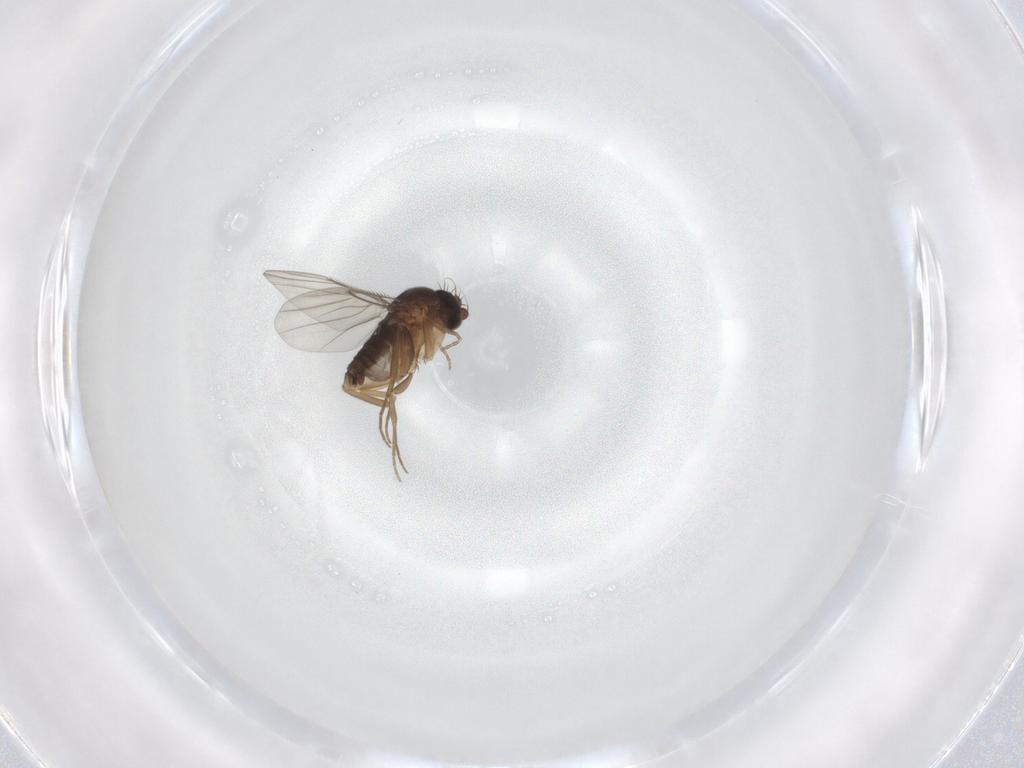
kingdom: Animalia
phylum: Arthropoda
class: Insecta
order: Diptera
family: Phoridae
